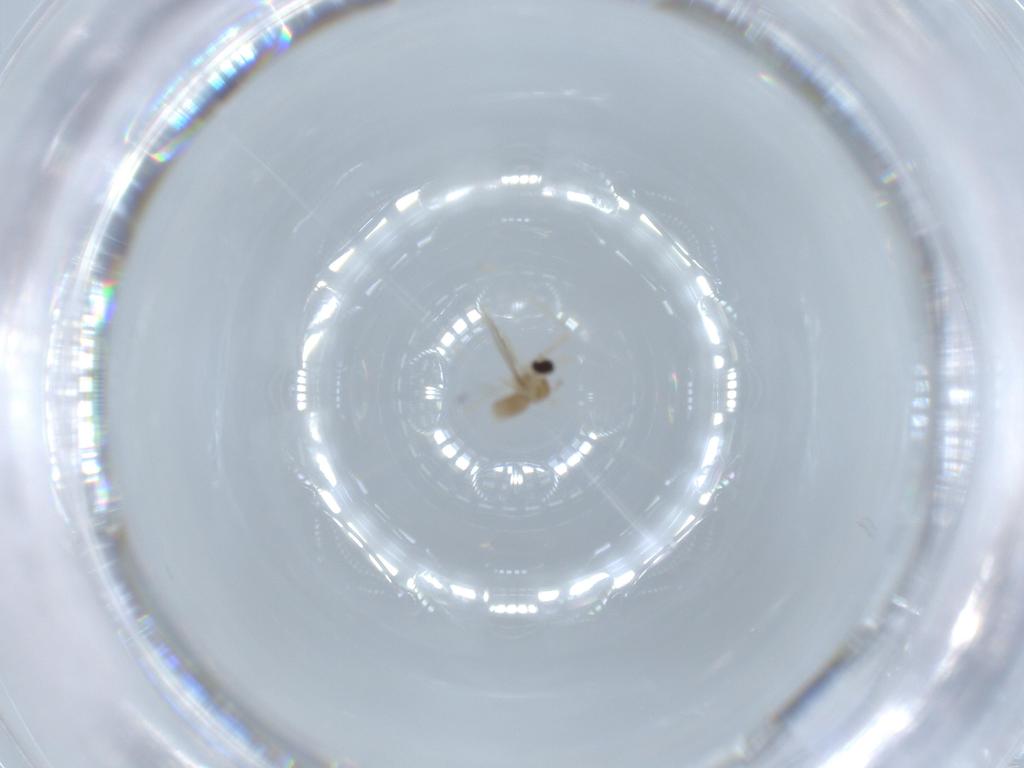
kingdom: Animalia
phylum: Arthropoda
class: Insecta
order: Diptera
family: Cecidomyiidae
